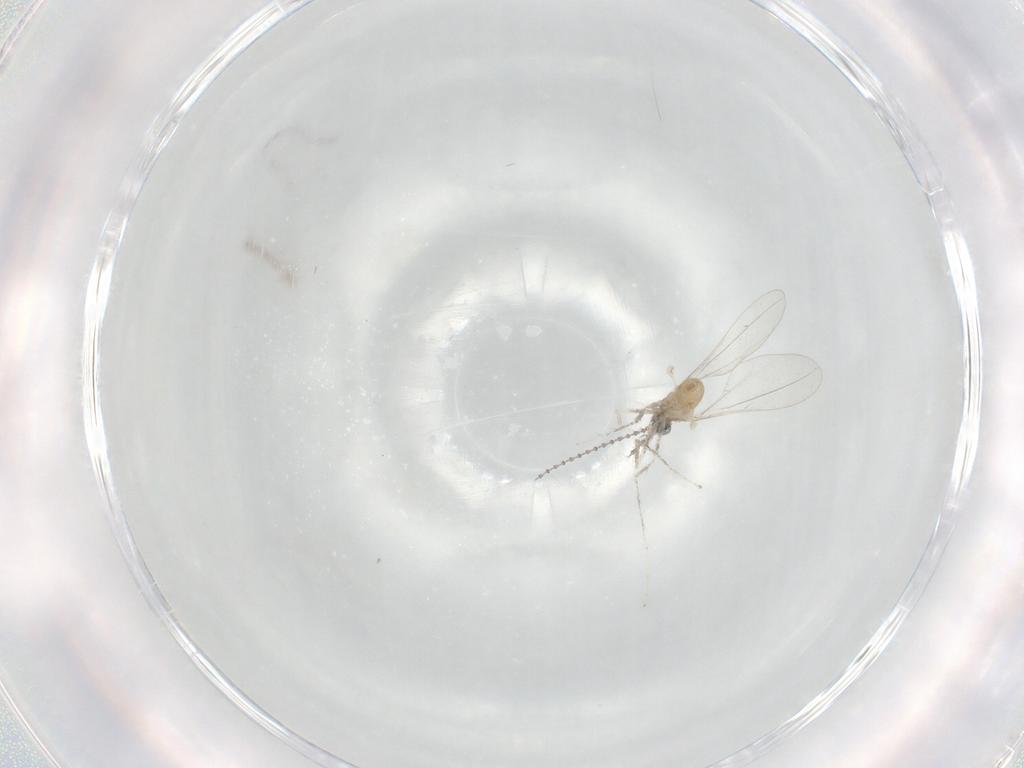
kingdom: Animalia
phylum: Arthropoda
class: Insecta
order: Diptera
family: Cecidomyiidae
